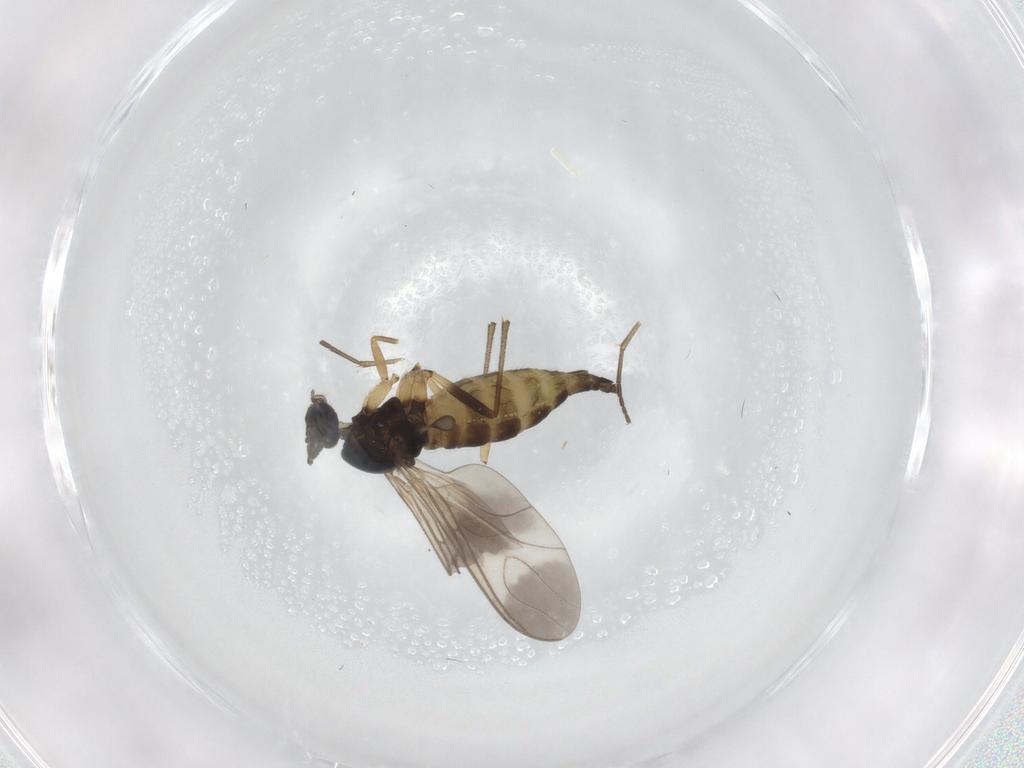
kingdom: Animalia
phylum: Arthropoda
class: Insecta
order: Diptera
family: Sciaridae
